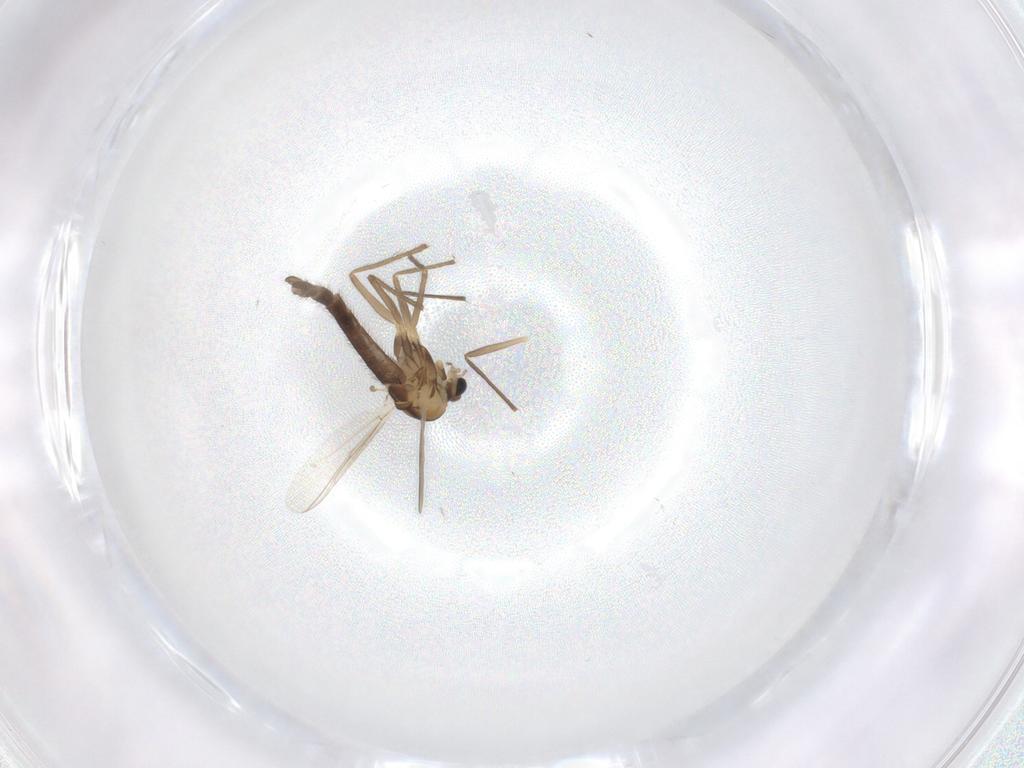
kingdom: Animalia
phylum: Arthropoda
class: Insecta
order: Diptera
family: Chironomidae
